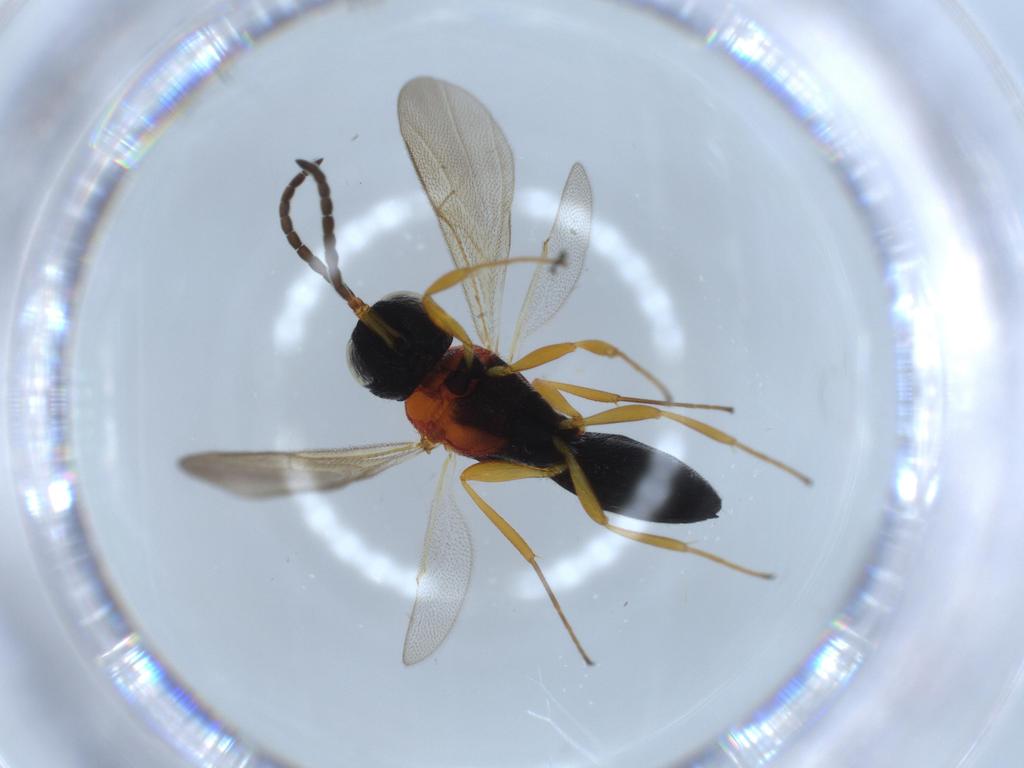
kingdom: Animalia
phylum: Arthropoda
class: Insecta
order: Hymenoptera
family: Scelionidae
